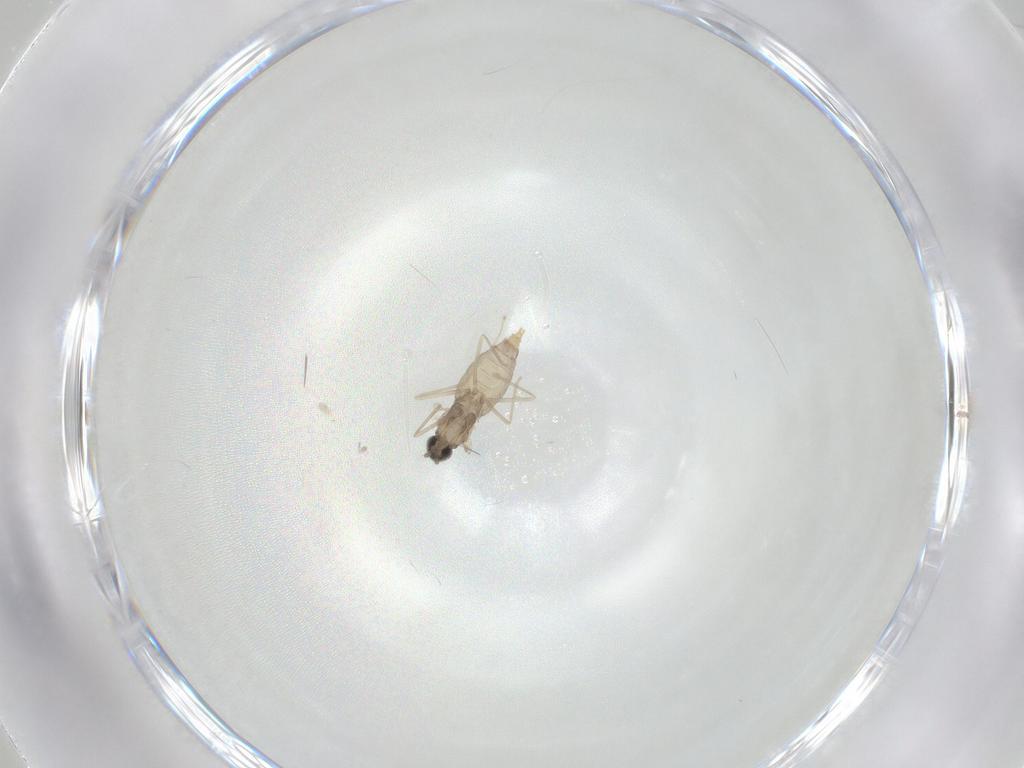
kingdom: Animalia
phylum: Arthropoda
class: Insecta
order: Diptera
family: Cecidomyiidae
